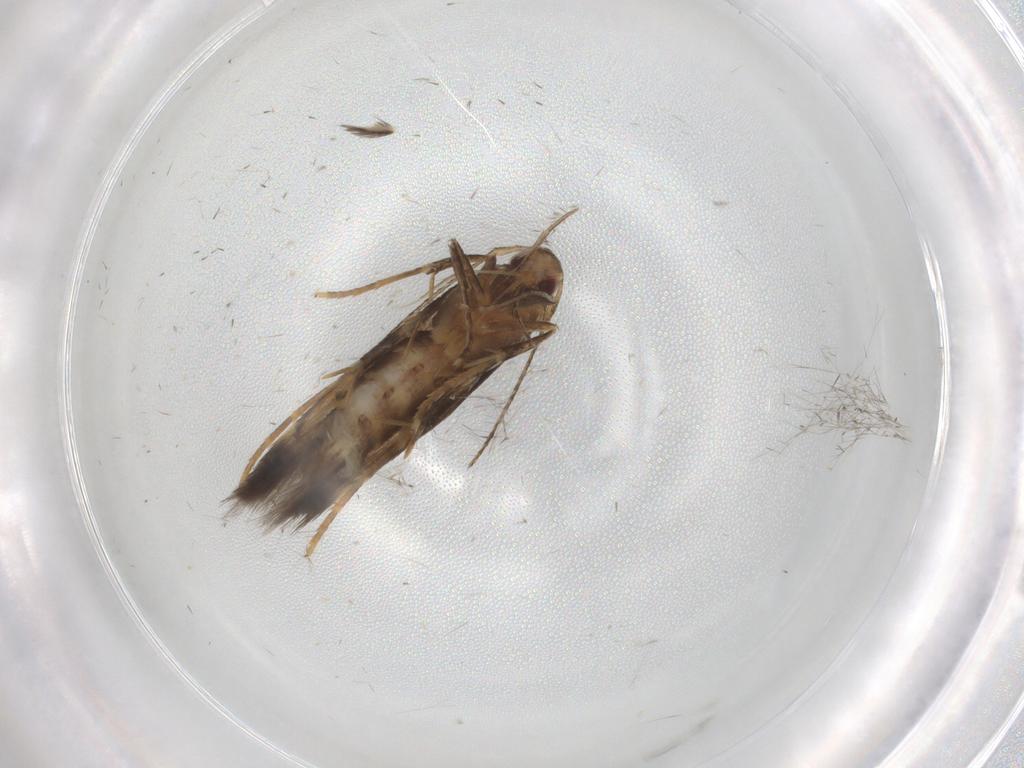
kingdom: Animalia
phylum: Arthropoda
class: Insecta
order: Lepidoptera
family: Cosmopterigidae
